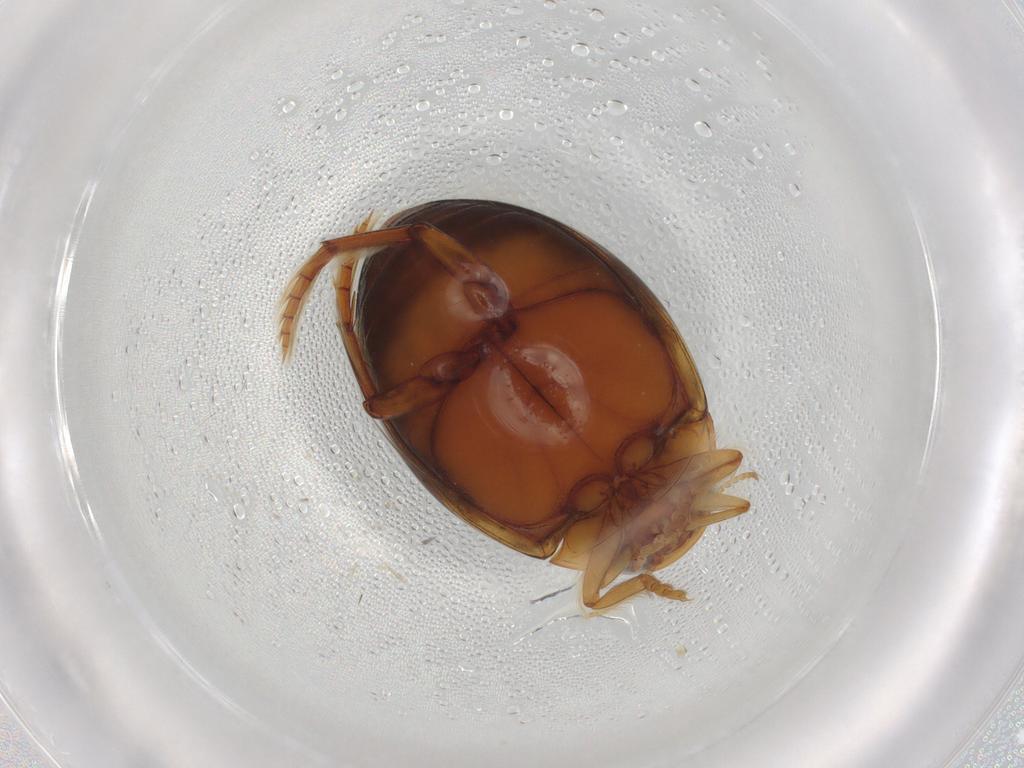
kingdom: Animalia
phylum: Arthropoda
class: Insecta
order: Coleoptera
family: Dytiscidae
